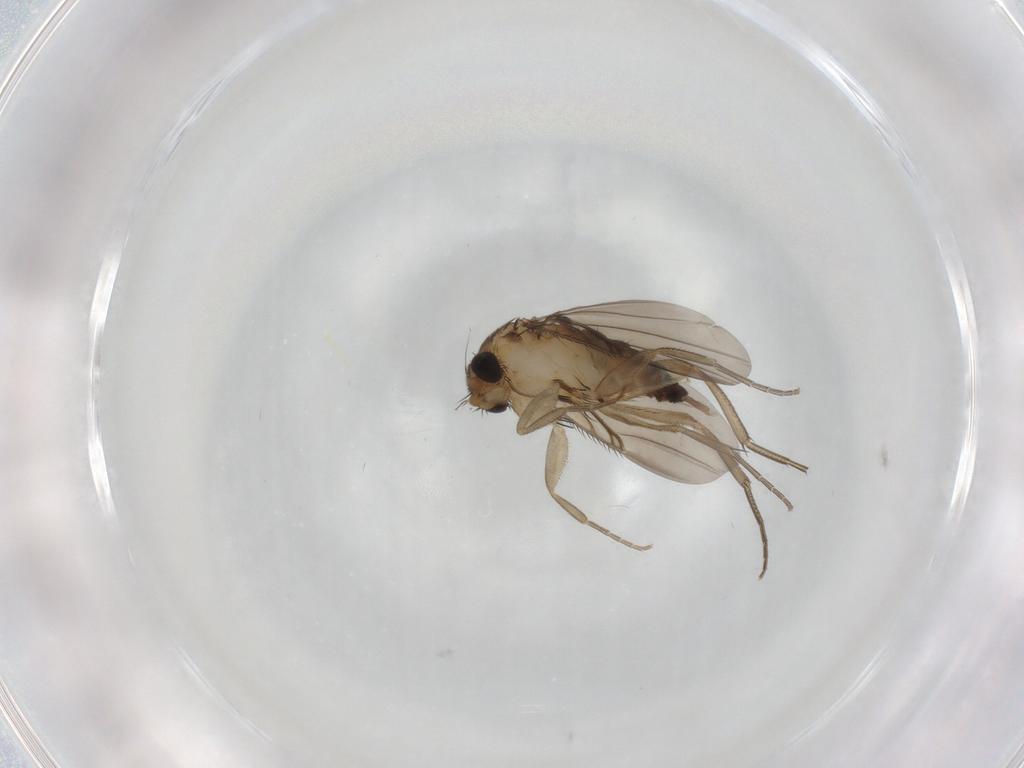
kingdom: Animalia
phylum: Arthropoda
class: Insecta
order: Diptera
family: Phoridae
